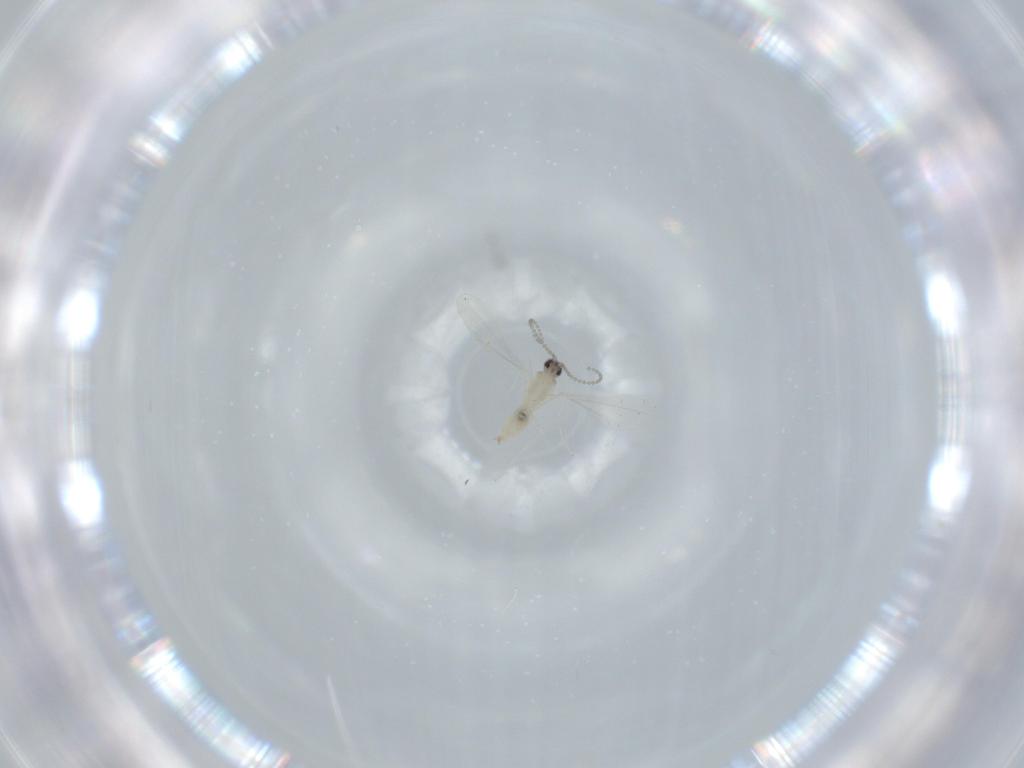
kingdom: Animalia
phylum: Arthropoda
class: Insecta
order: Diptera
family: Cecidomyiidae
